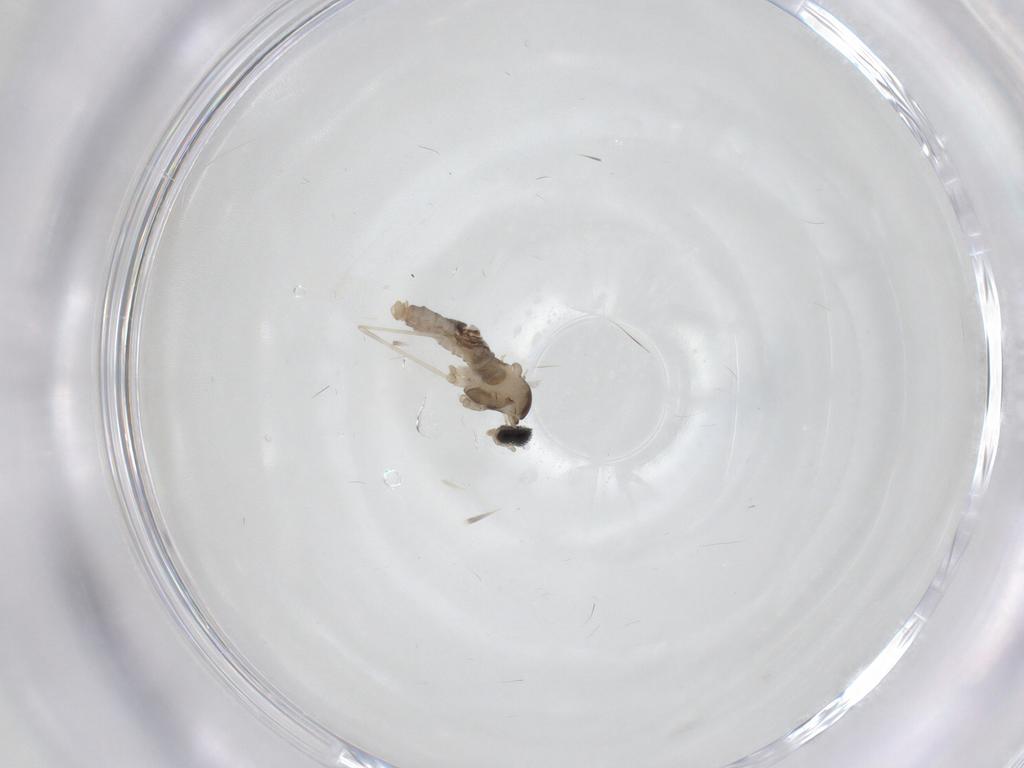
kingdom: Animalia
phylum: Arthropoda
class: Insecta
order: Diptera
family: Cecidomyiidae
